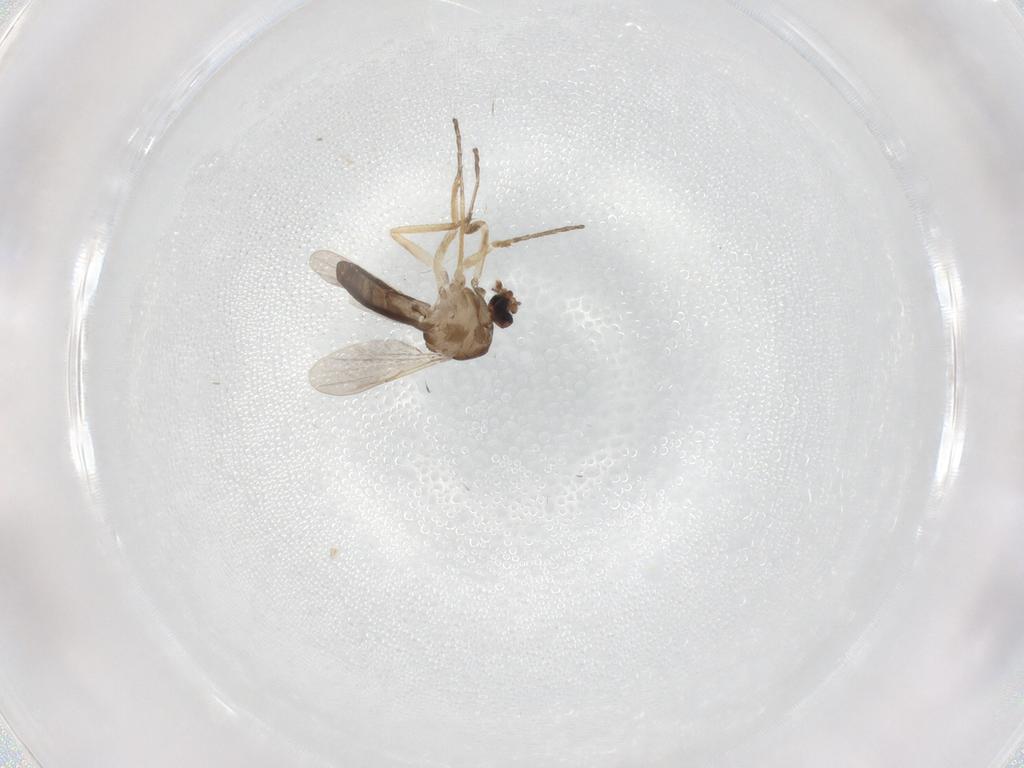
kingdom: Animalia
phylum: Arthropoda
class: Insecta
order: Diptera
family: Ceratopogonidae
